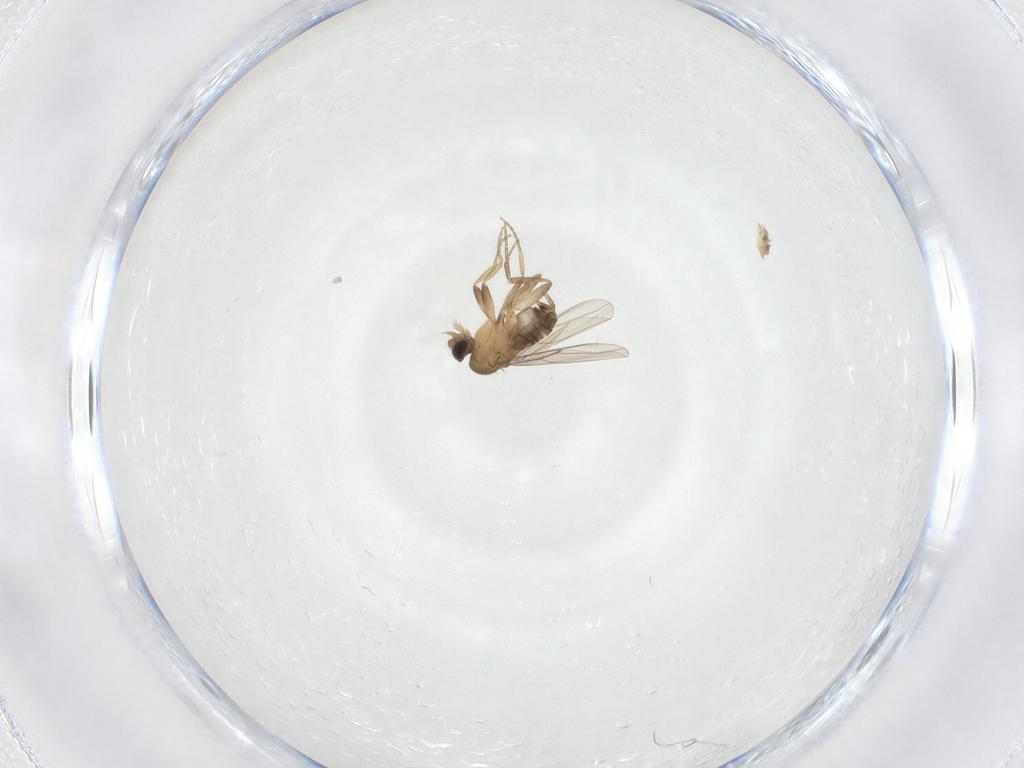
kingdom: Animalia
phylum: Arthropoda
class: Insecta
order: Diptera
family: Phoridae
